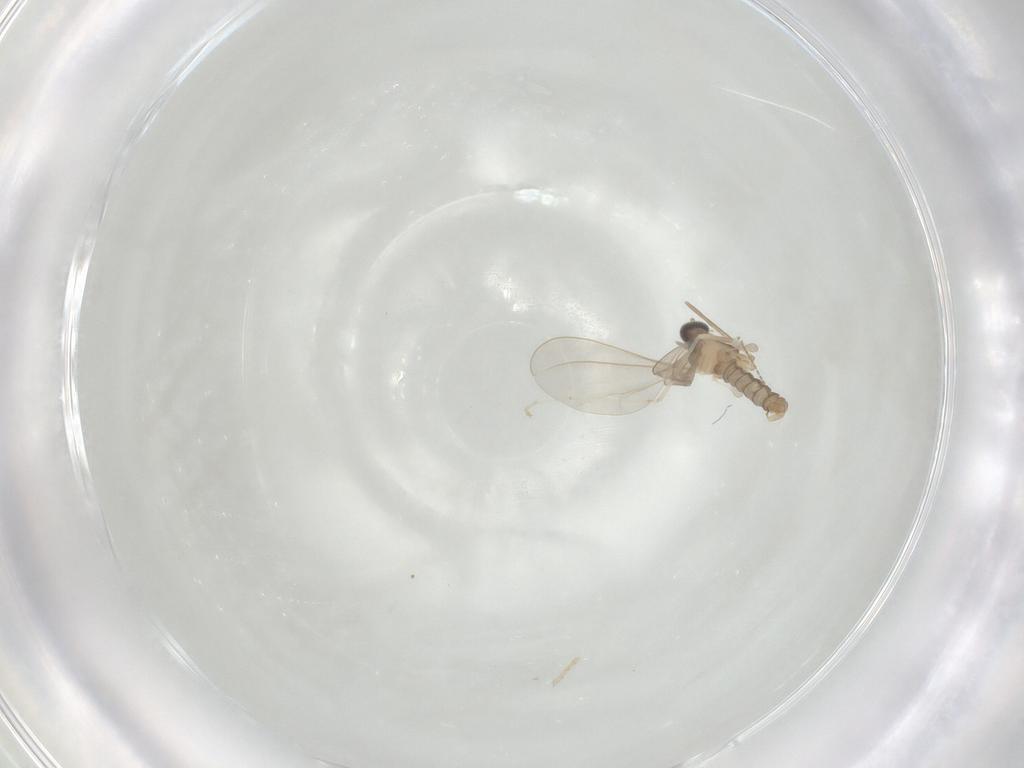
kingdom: Animalia
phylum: Arthropoda
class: Insecta
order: Diptera
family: Cecidomyiidae
